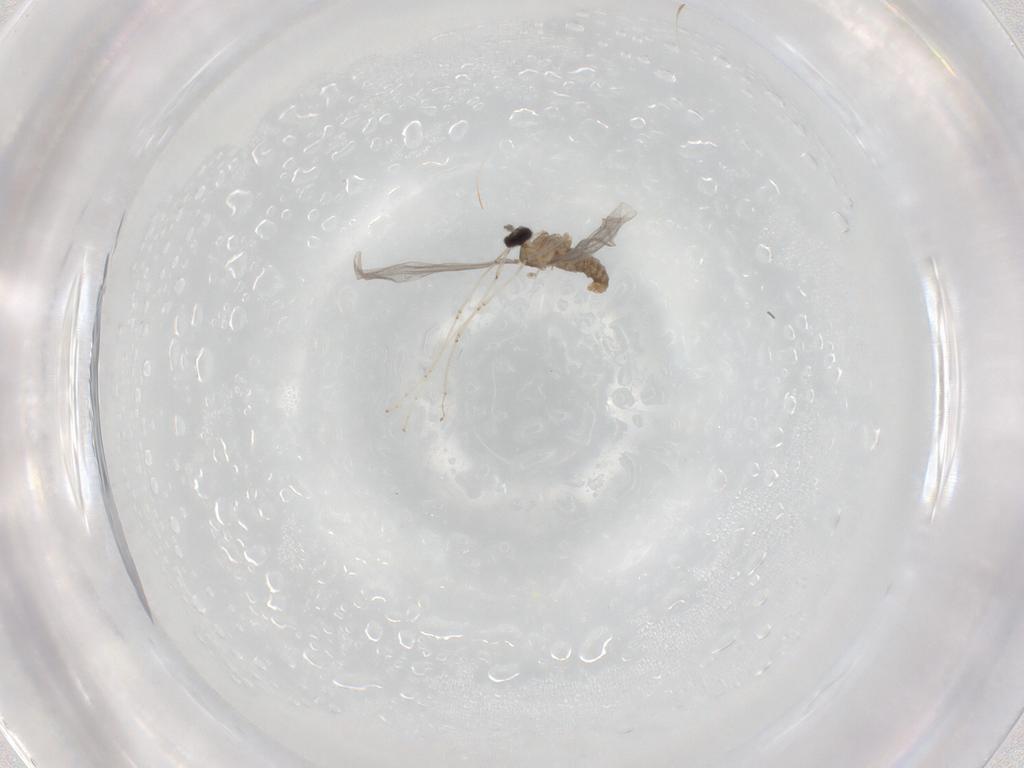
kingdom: Animalia
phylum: Arthropoda
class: Insecta
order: Diptera
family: Cecidomyiidae
